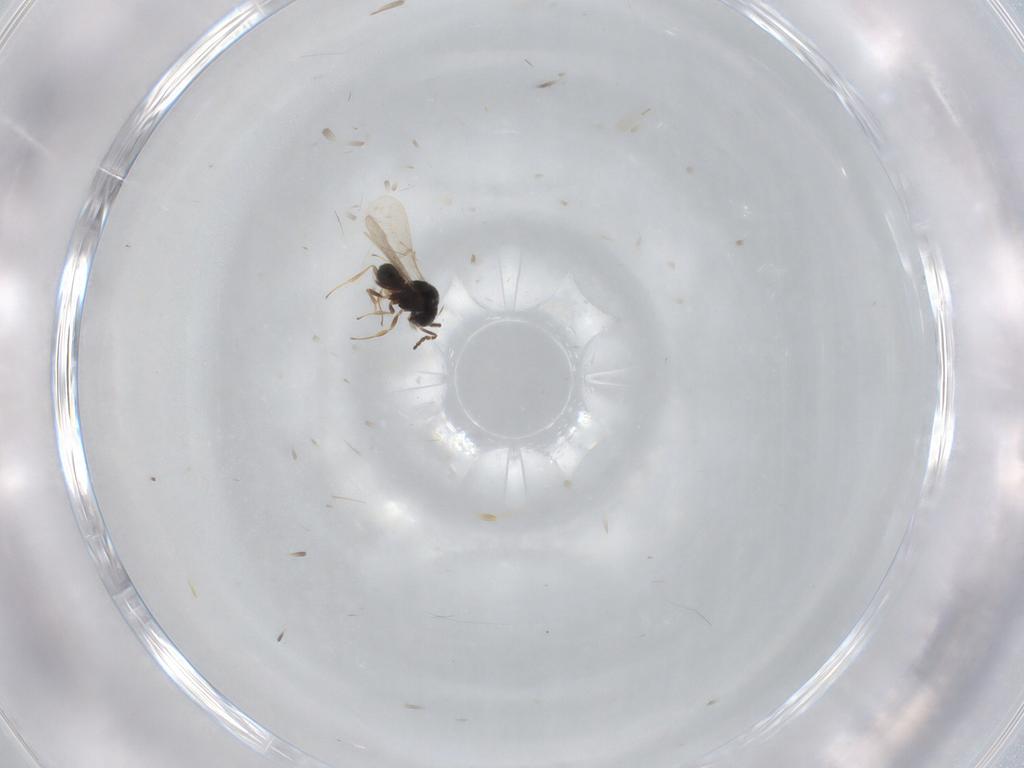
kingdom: Animalia
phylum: Arthropoda
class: Insecta
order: Hymenoptera
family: Scelionidae
